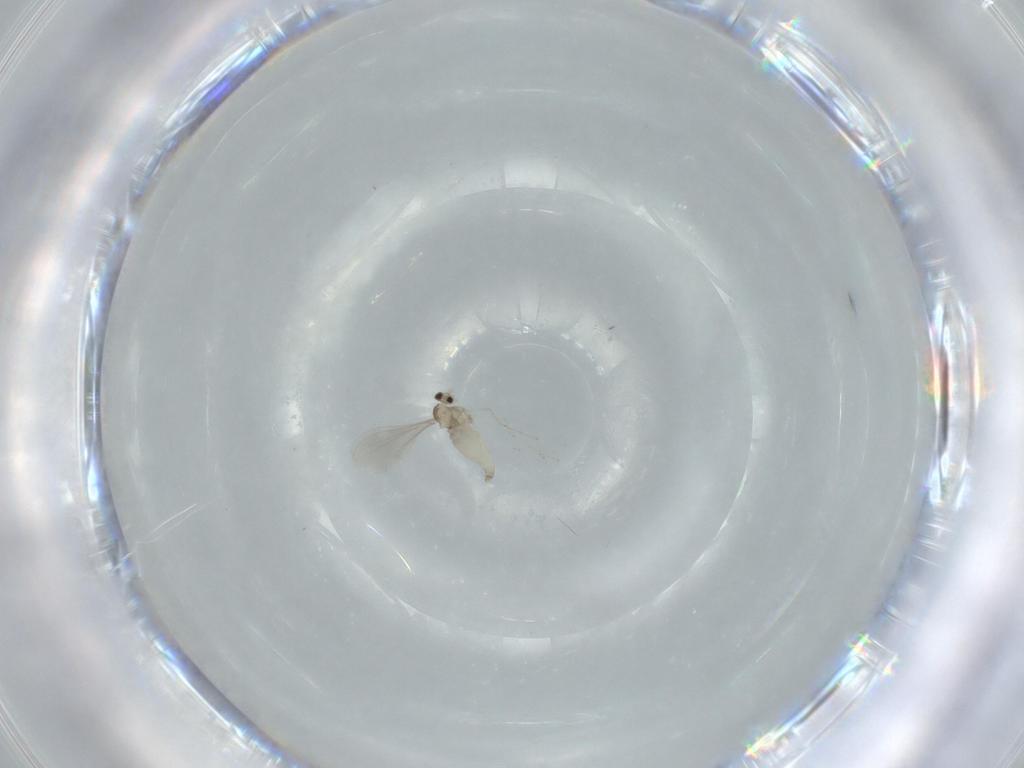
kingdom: Animalia
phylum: Arthropoda
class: Insecta
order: Diptera
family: Cecidomyiidae
